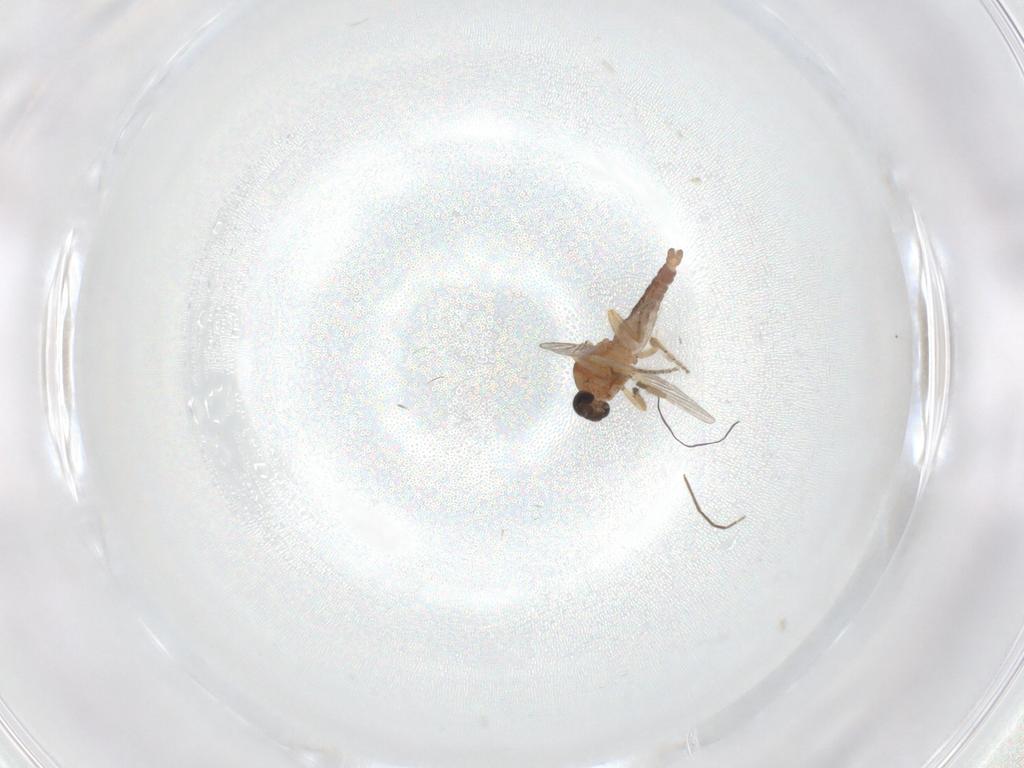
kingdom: Animalia
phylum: Arthropoda
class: Insecta
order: Diptera
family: Ceratopogonidae
